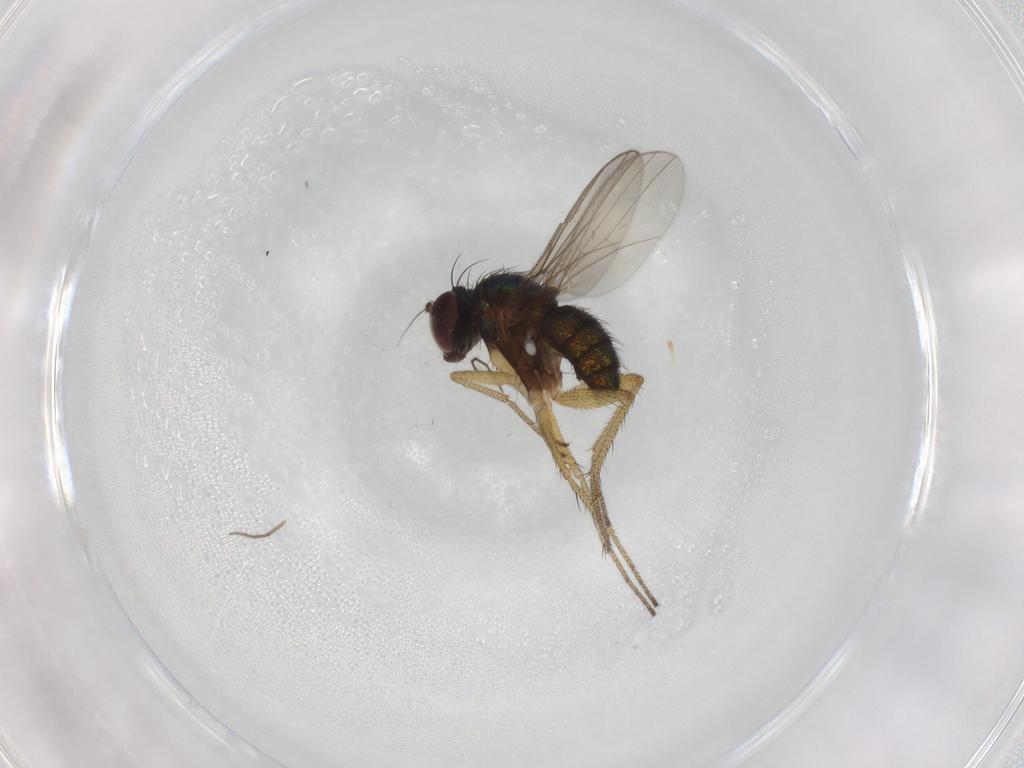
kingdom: Animalia
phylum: Arthropoda
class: Insecta
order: Diptera
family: Chironomidae
